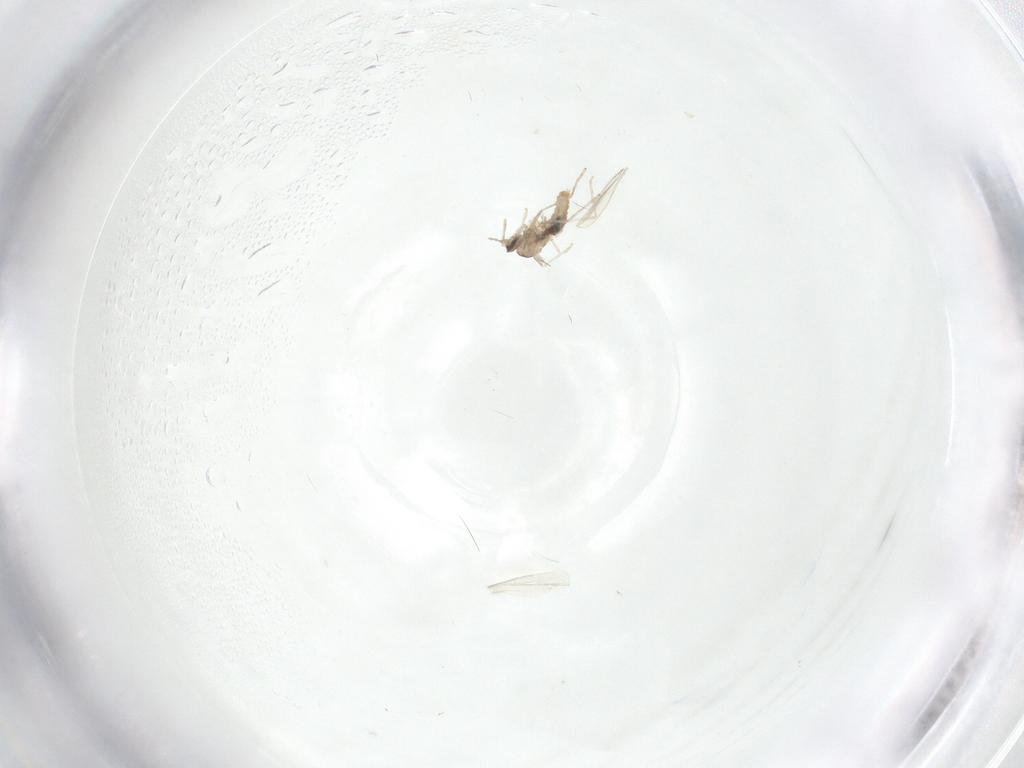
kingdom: Animalia
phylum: Arthropoda
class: Insecta
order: Diptera
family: Cecidomyiidae
